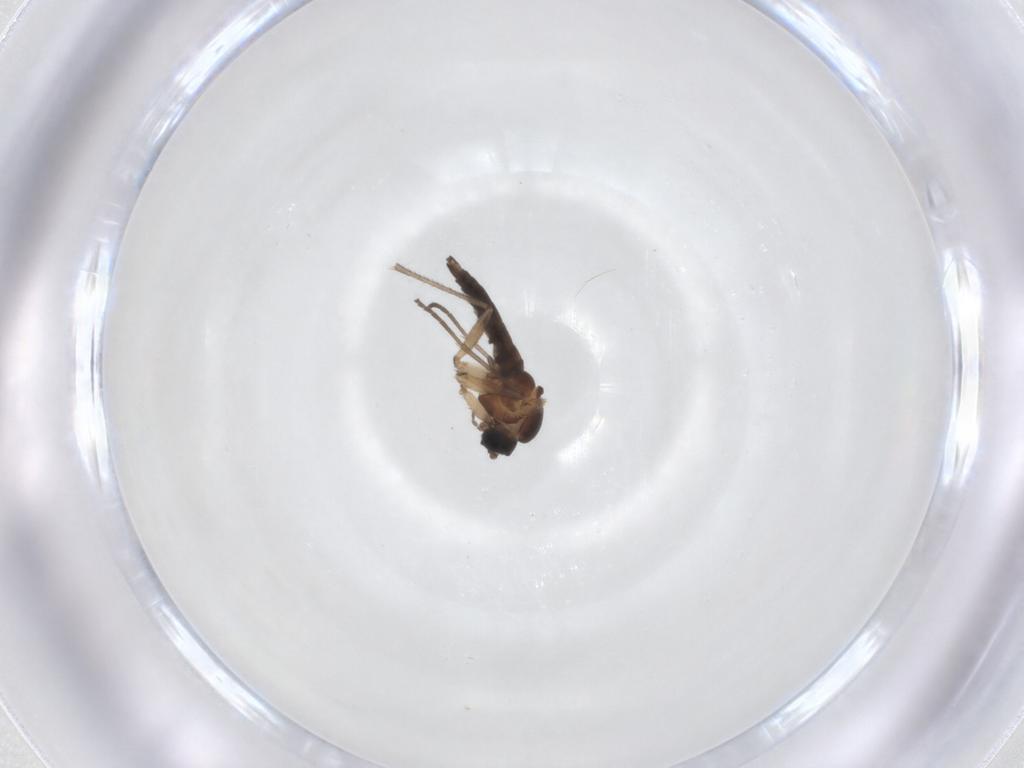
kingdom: Animalia
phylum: Arthropoda
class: Insecta
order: Diptera
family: Sciaridae
